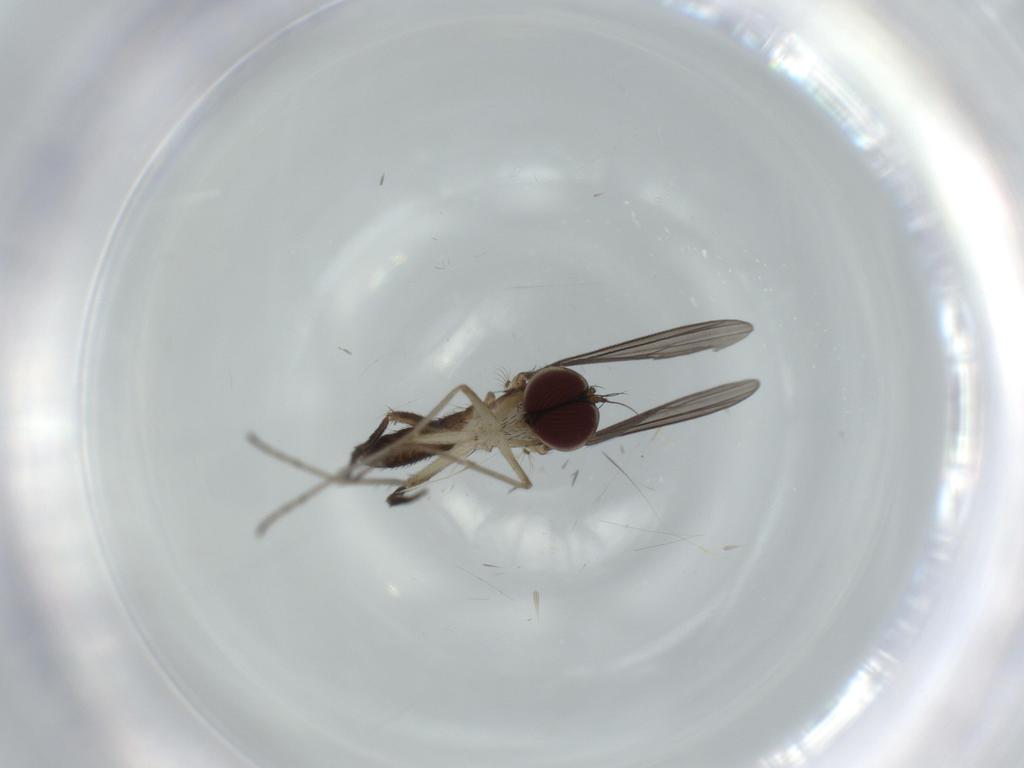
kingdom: Animalia
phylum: Arthropoda
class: Insecta
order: Diptera
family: Dolichopodidae
